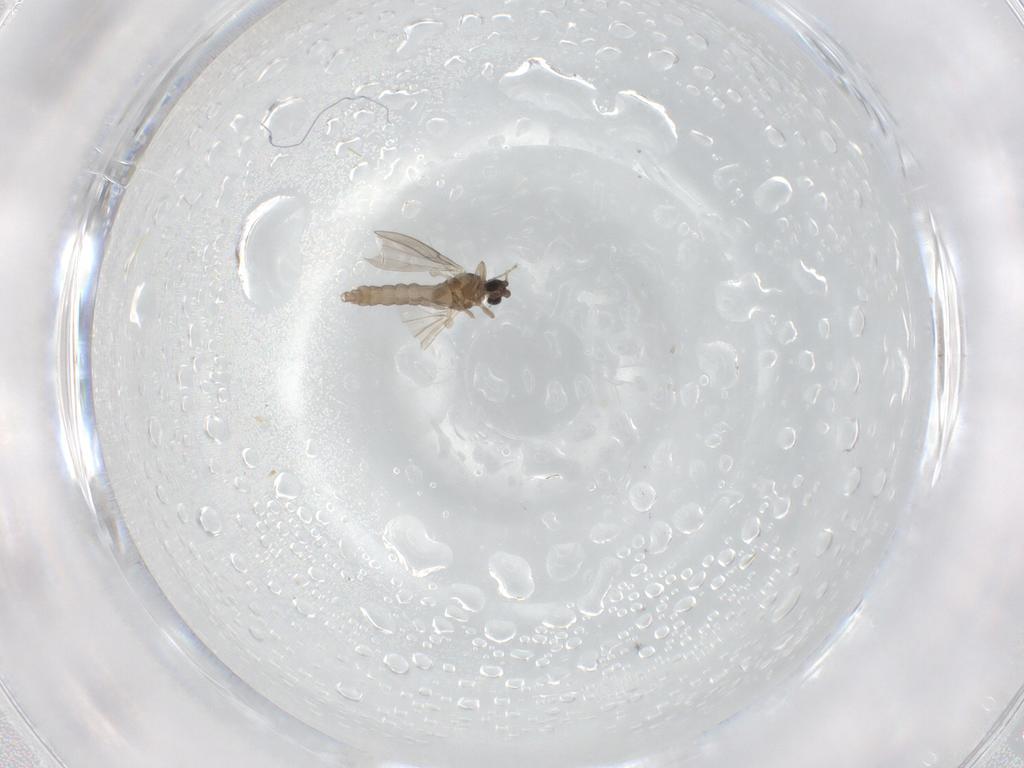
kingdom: Animalia
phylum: Arthropoda
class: Insecta
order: Diptera
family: Cecidomyiidae
